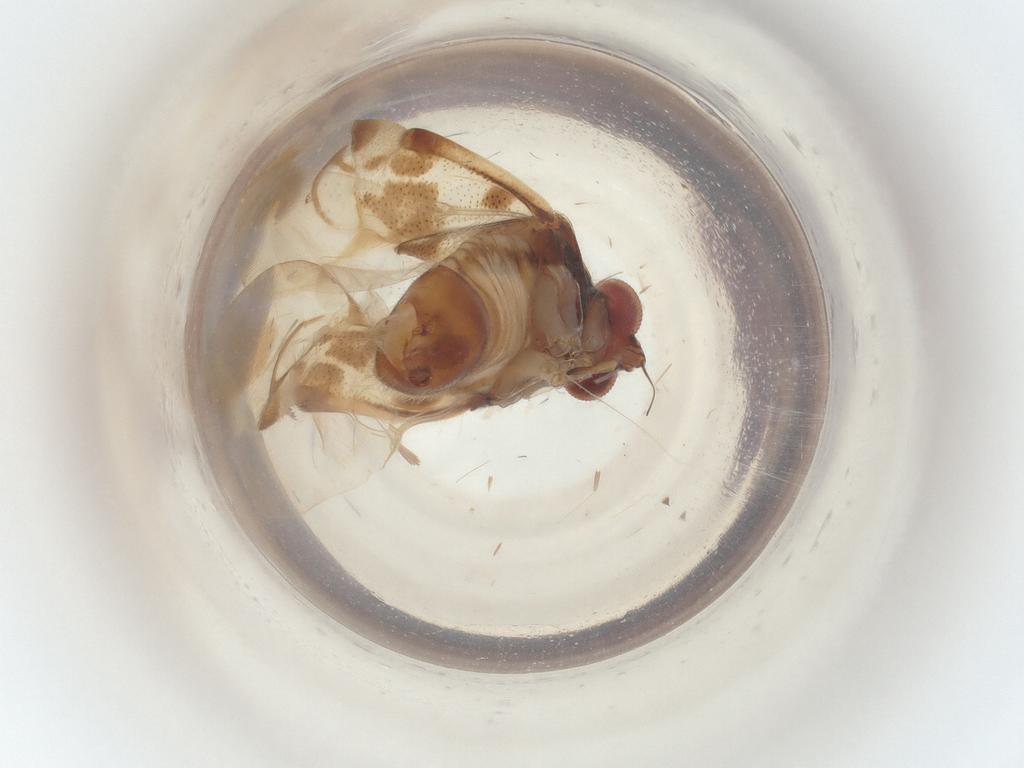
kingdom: Animalia
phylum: Arthropoda
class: Insecta
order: Hemiptera
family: Miridae
